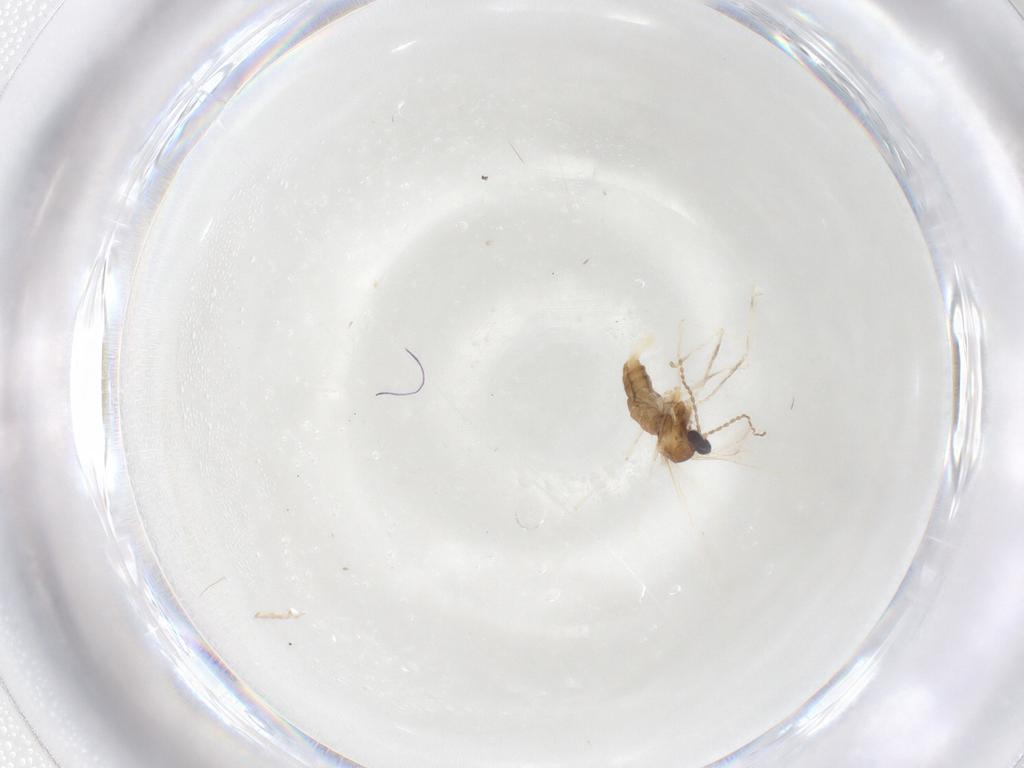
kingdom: Animalia
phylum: Arthropoda
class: Insecta
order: Diptera
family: Cecidomyiidae
